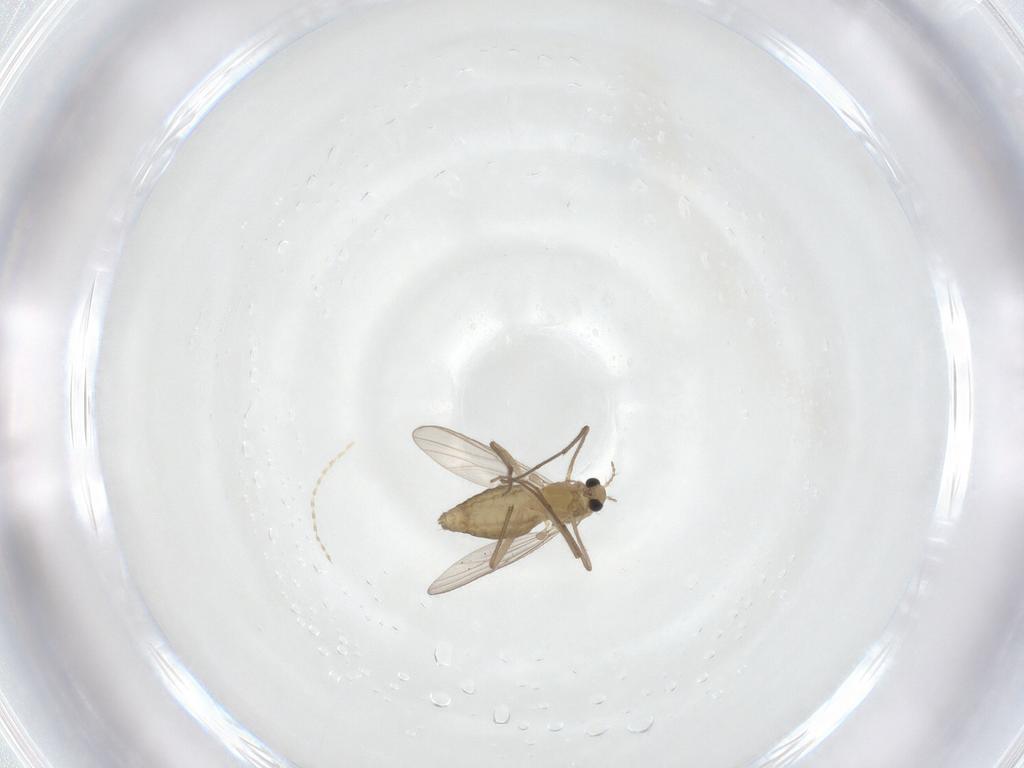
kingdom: Animalia
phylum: Arthropoda
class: Insecta
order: Diptera
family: Chironomidae
